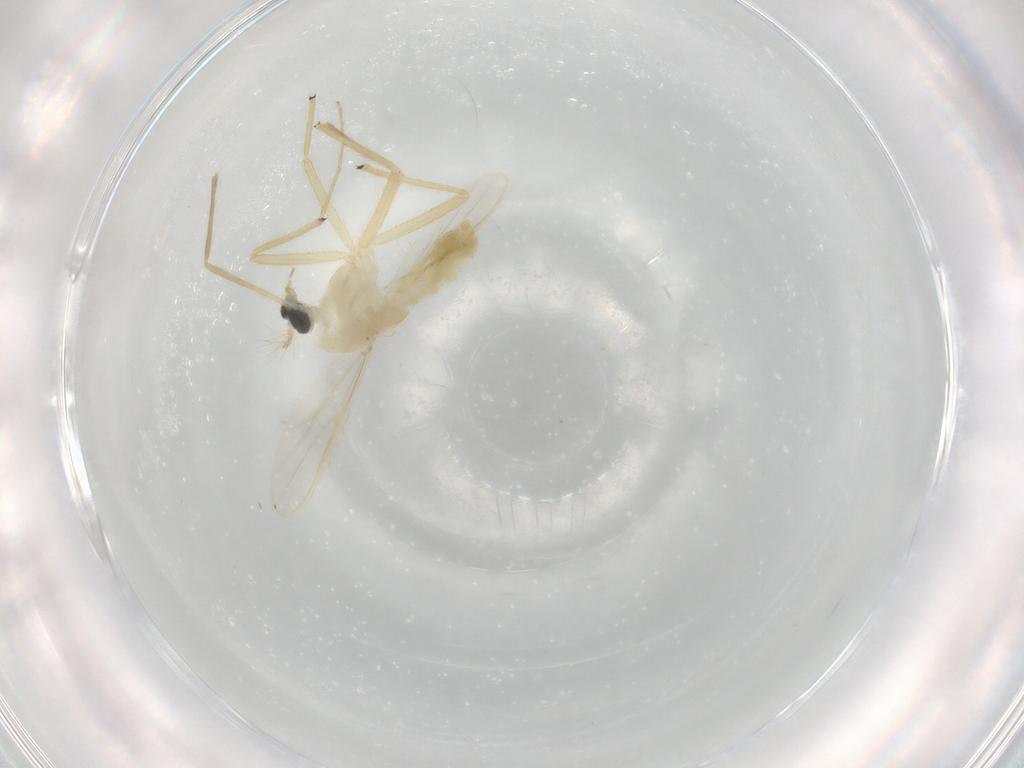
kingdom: Animalia
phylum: Arthropoda
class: Insecta
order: Diptera
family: Chironomidae
